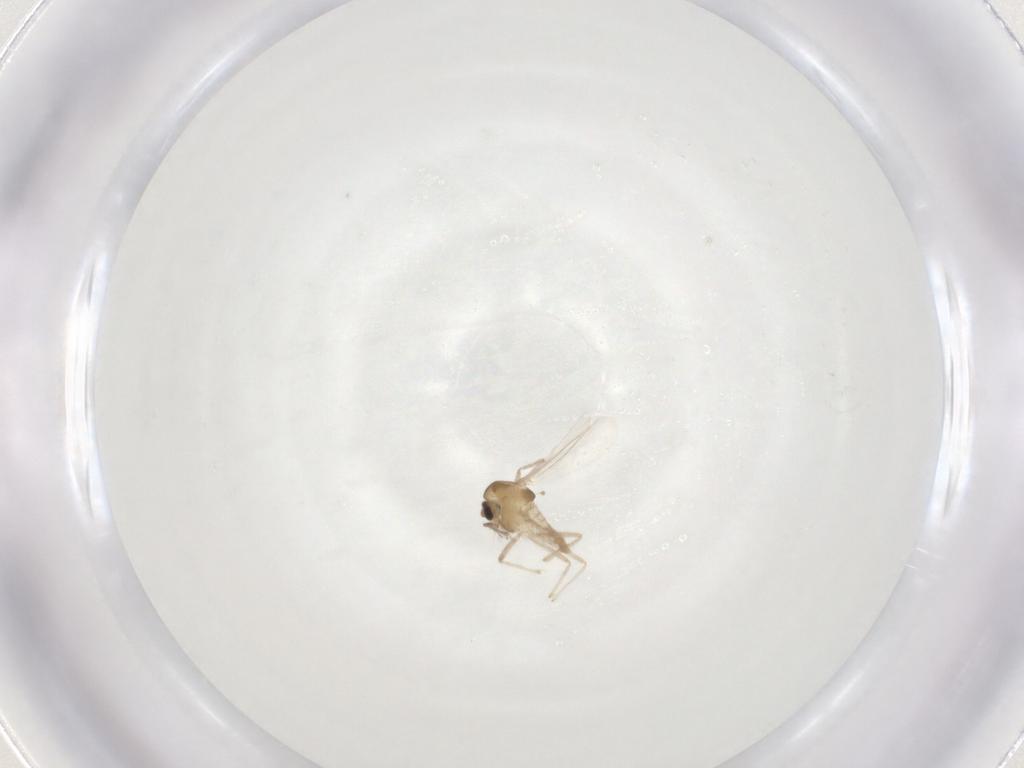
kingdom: Animalia
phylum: Arthropoda
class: Insecta
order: Diptera
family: Chironomidae
